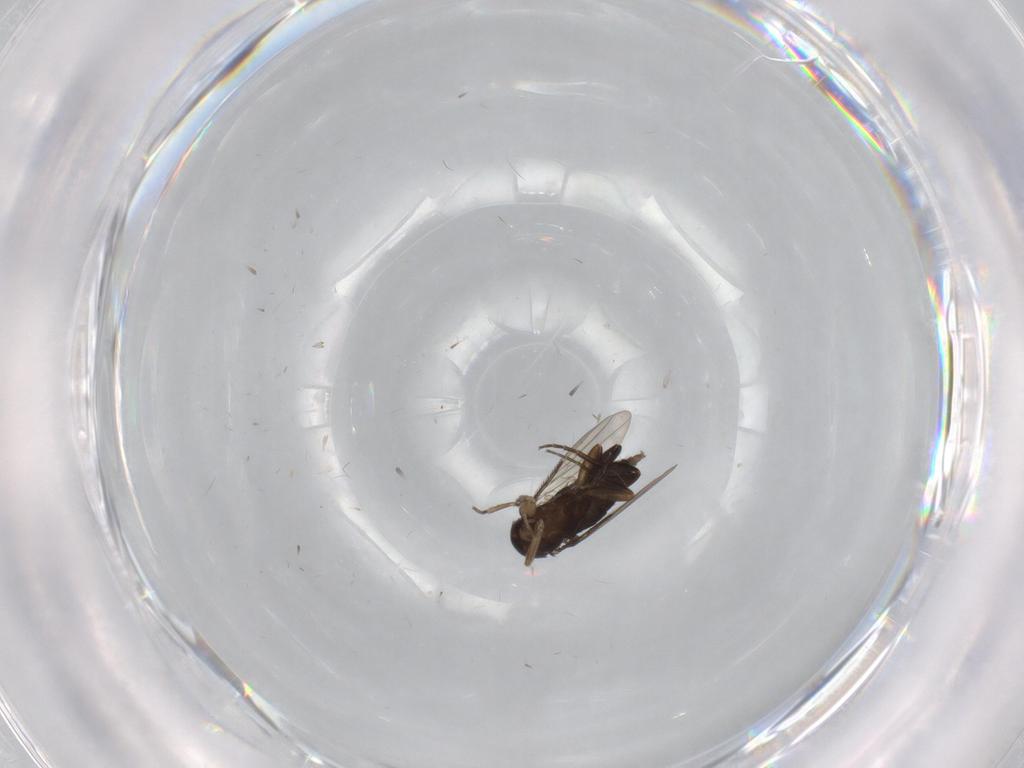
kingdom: Animalia
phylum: Arthropoda
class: Insecta
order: Diptera
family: Phoridae
